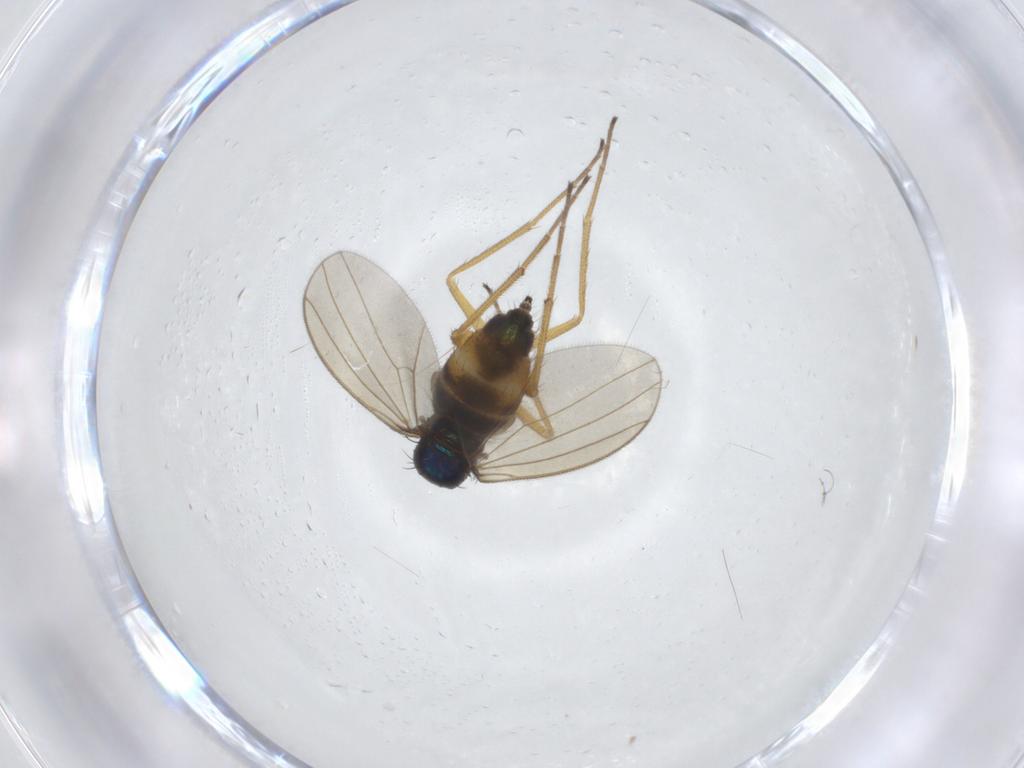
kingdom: Animalia
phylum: Arthropoda
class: Insecta
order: Diptera
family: Dolichopodidae
